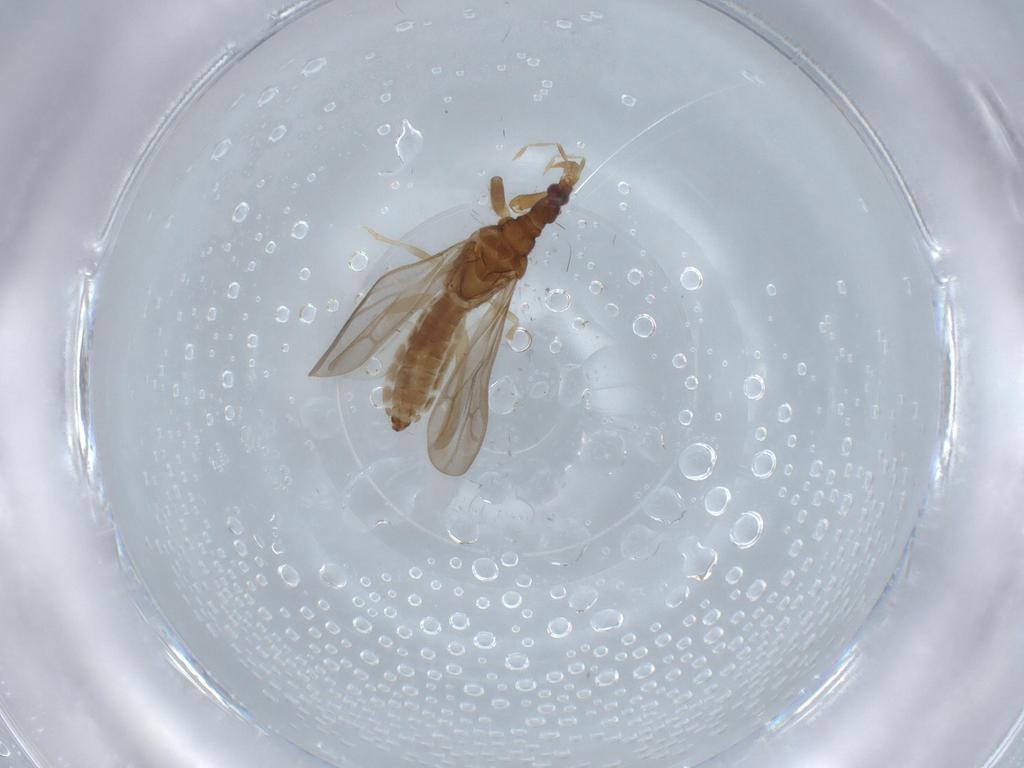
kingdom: Animalia
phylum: Arthropoda
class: Insecta
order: Hemiptera
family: Enicocephalidae
